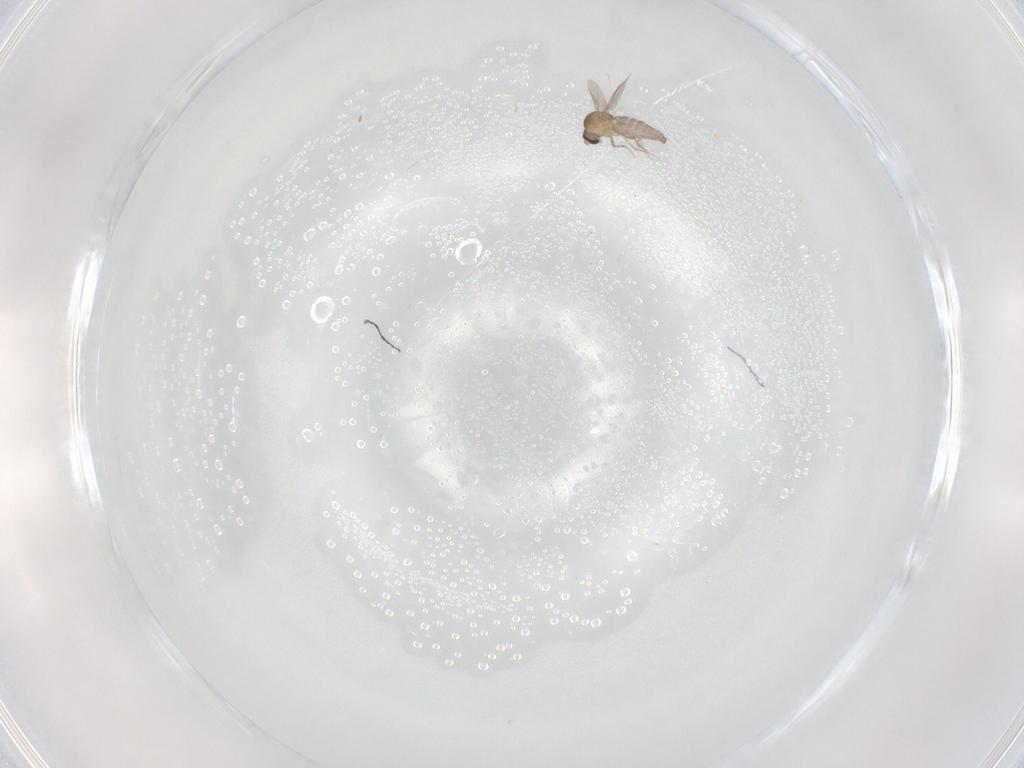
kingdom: Animalia
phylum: Arthropoda
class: Insecta
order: Diptera
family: Ceratopogonidae
